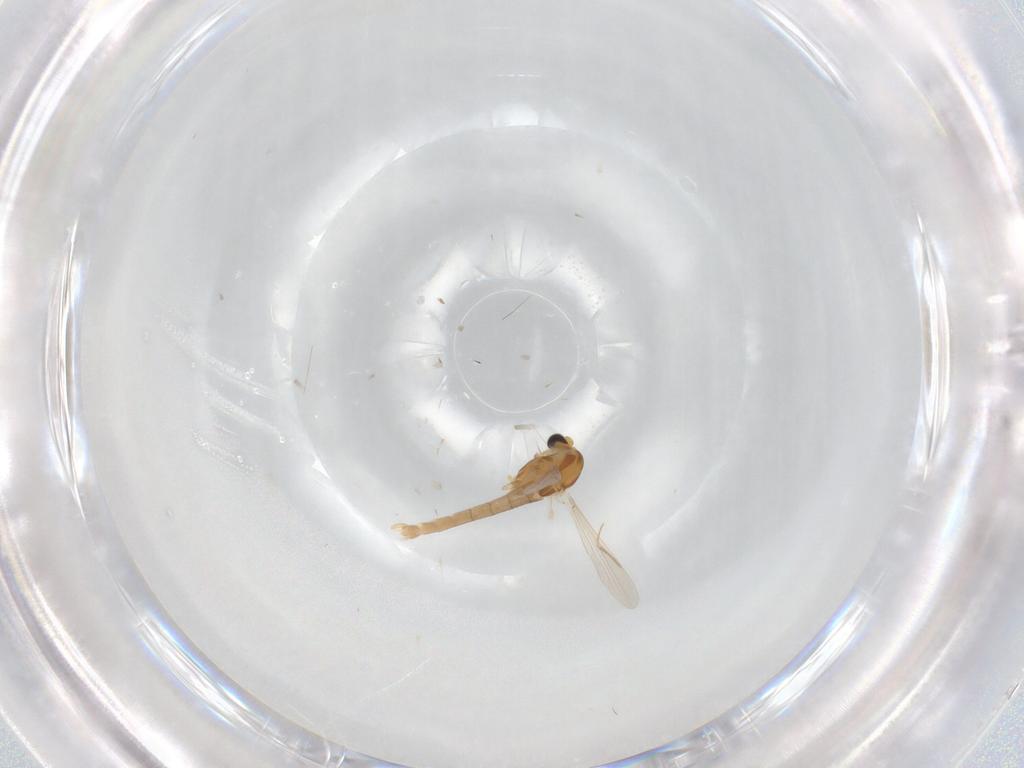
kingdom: Animalia
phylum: Arthropoda
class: Insecta
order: Diptera
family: Chironomidae
